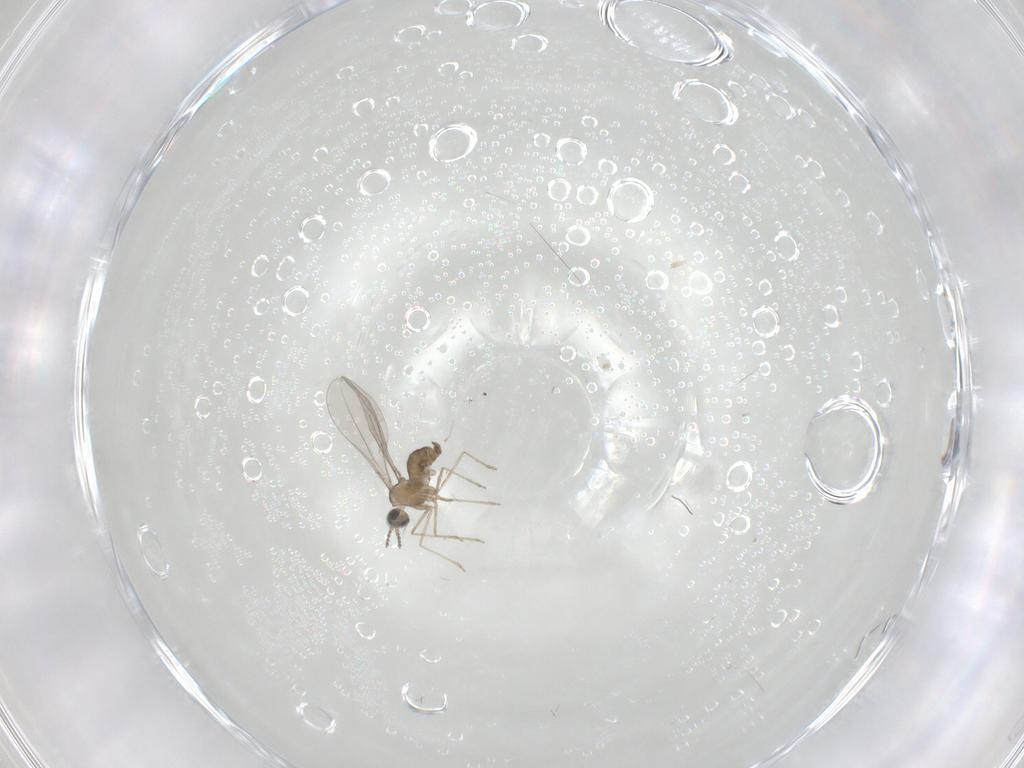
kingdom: Animalia
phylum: Arthropoda
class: Insecta
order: Diptera
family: Cecidomyiidae
